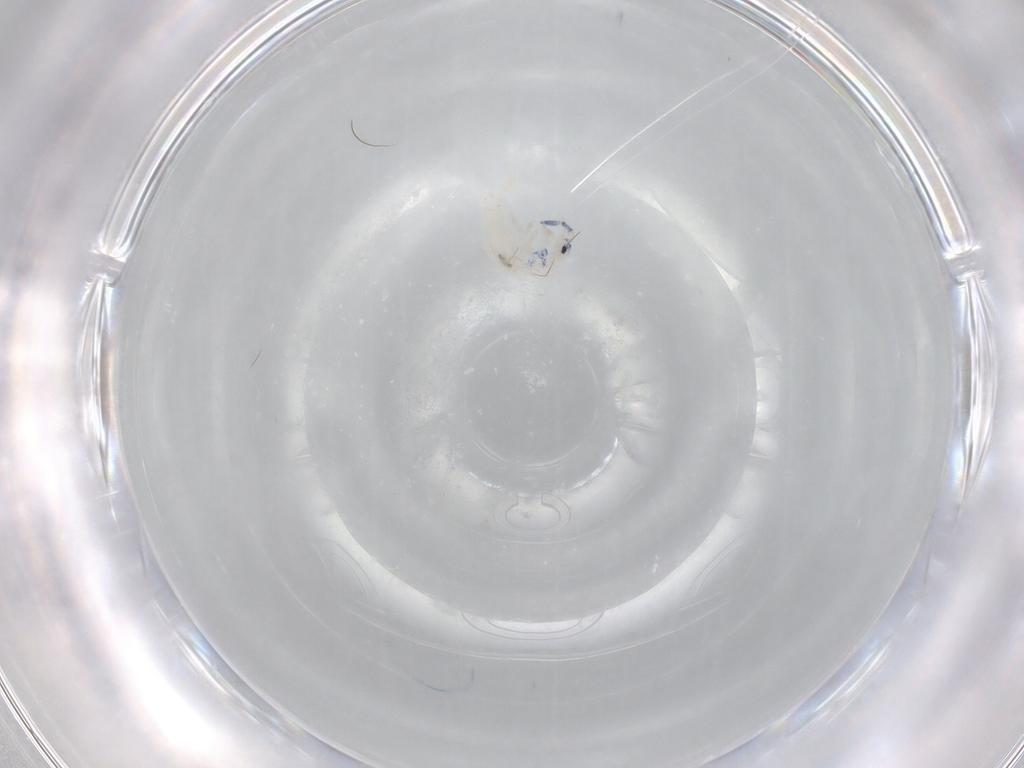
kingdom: Animalia
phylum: Arthropoda
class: Collembola
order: Entomobryomorpha
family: Entomobryidae
